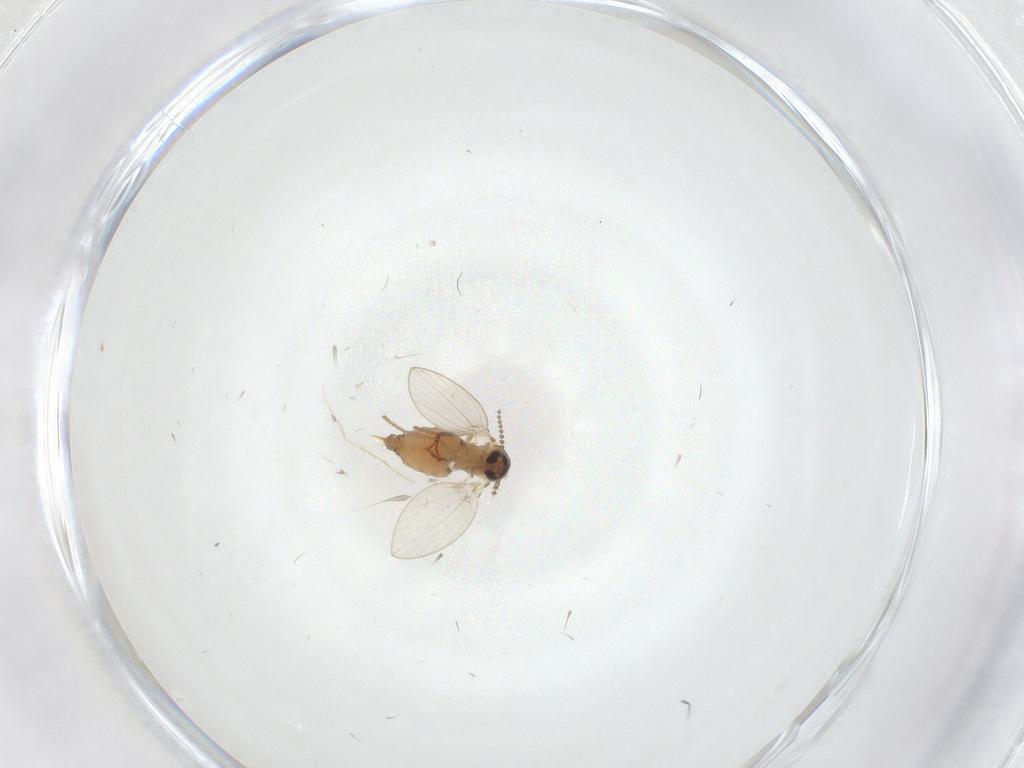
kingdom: Animalia
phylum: Arthropoda
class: Insecta
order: Diptera
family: Psychodidae
